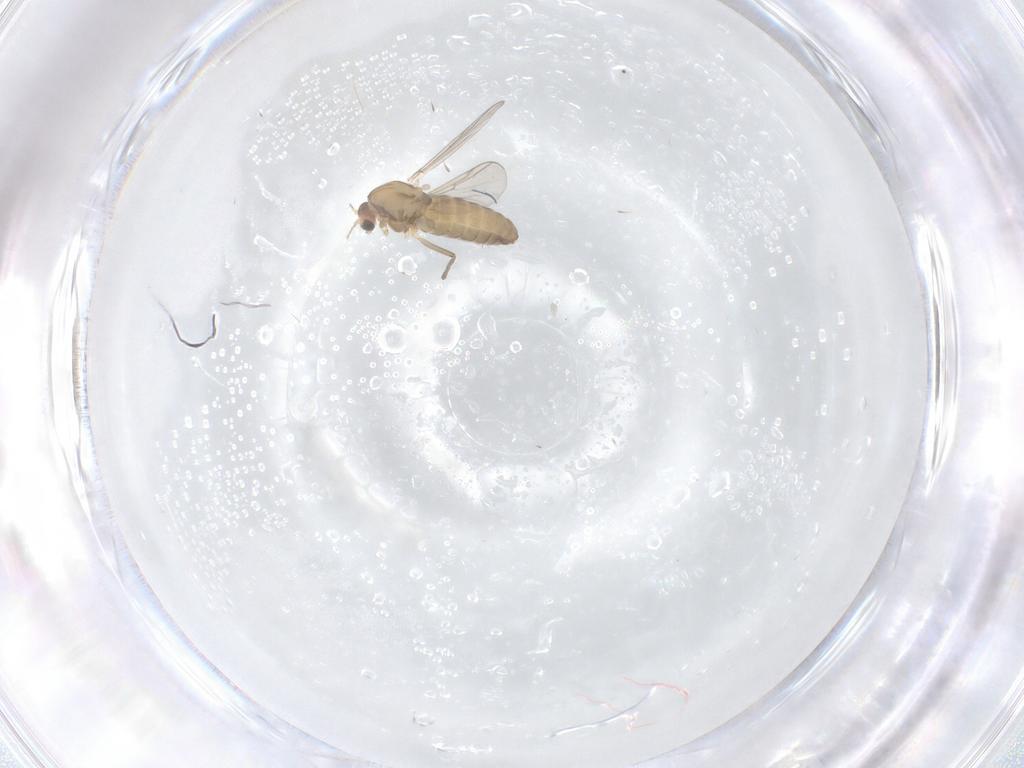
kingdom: Animalia
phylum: Arthropoda
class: Insecta
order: Diptera
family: Chironomidae
